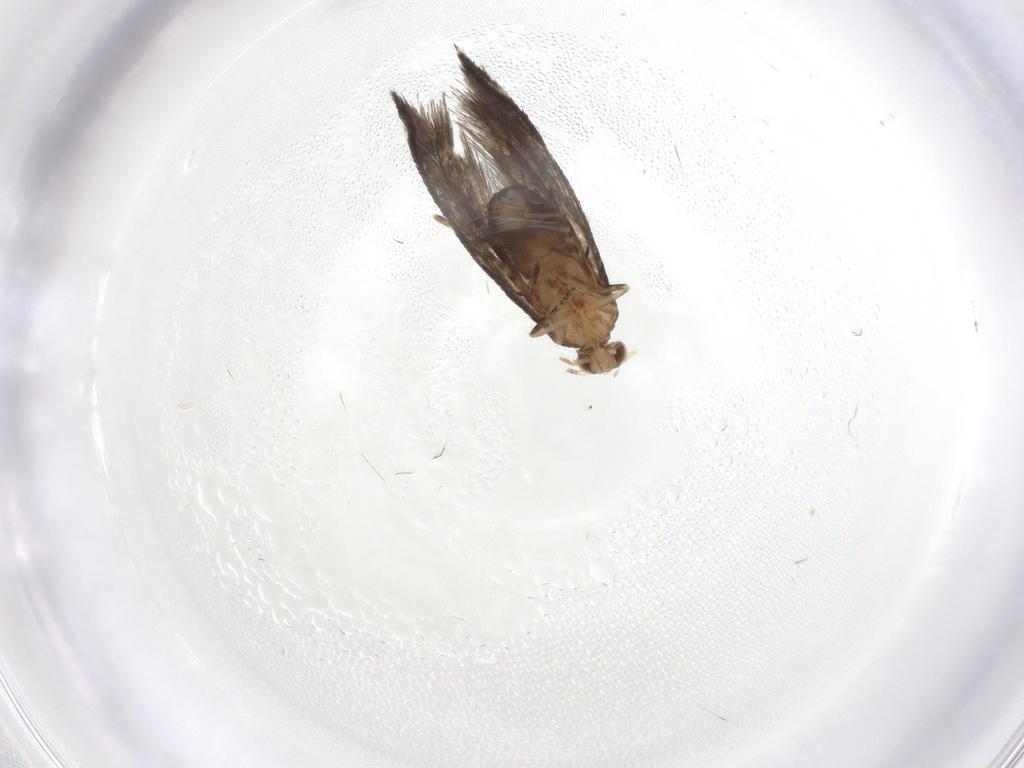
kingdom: Animalia
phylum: Arthropoda
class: Insecta
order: Lepidoptera
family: Tineidae
